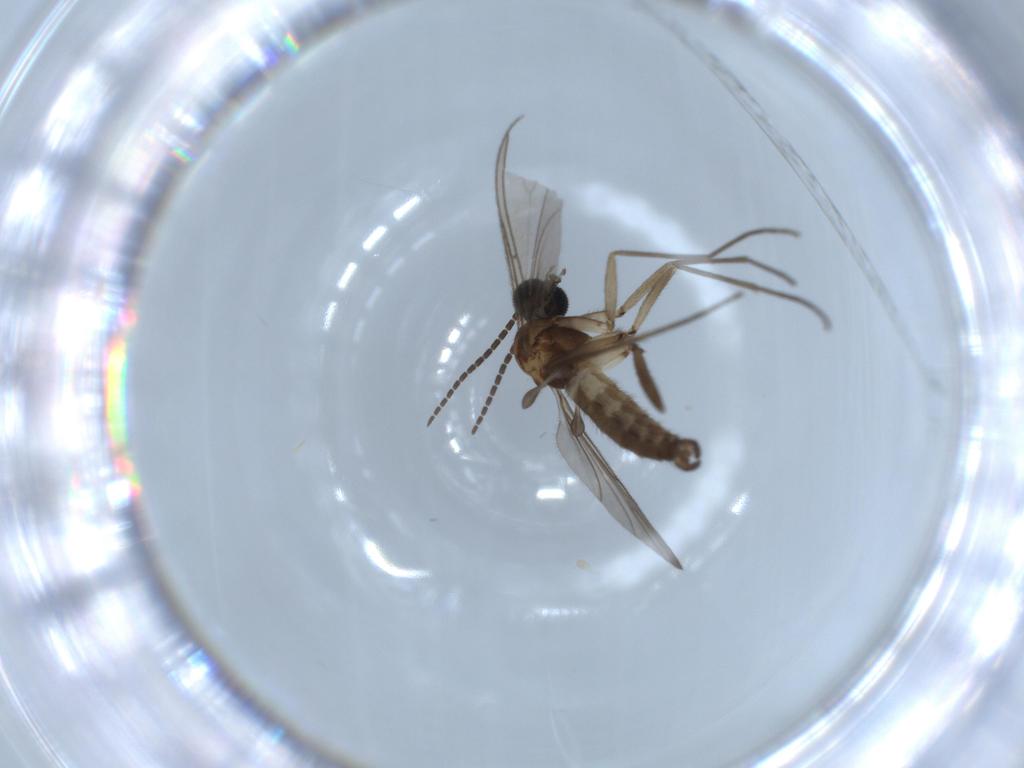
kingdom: Animalia
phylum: Arthropoda
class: Insecta
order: Diptera
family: Sciaridae
